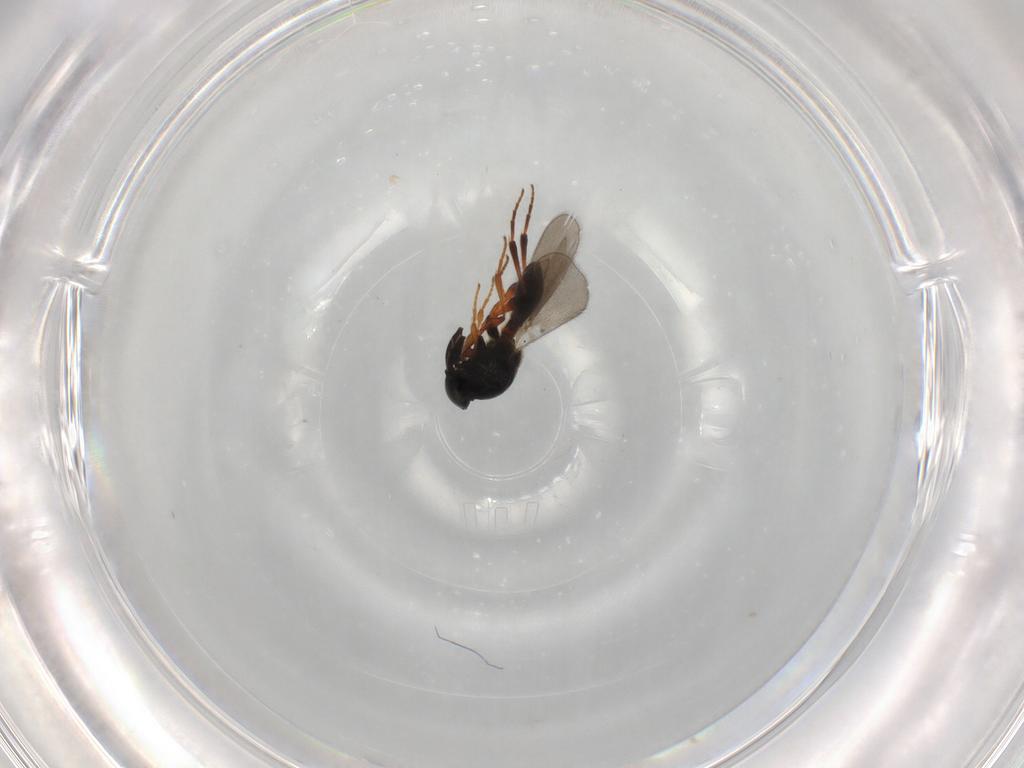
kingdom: Animalia
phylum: Arthropoda
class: Insecta
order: Hymenoptera
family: Platygastridae
